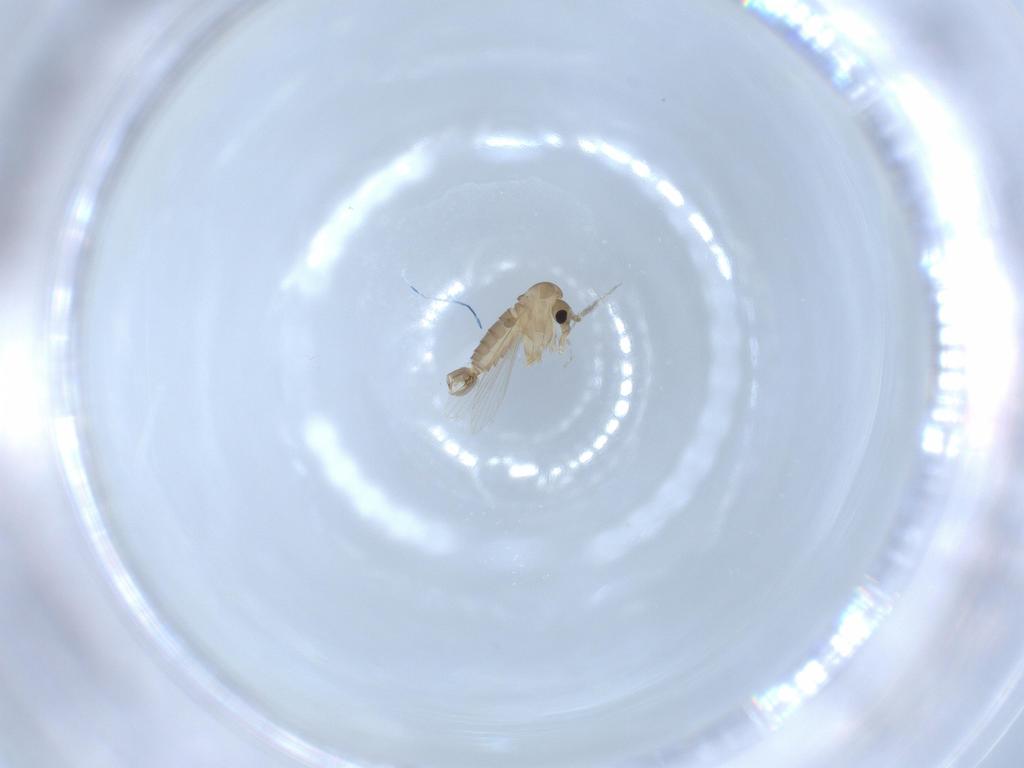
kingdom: Animalia
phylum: Arthropoda
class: Insecta
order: Diptera
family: Psychodidae
